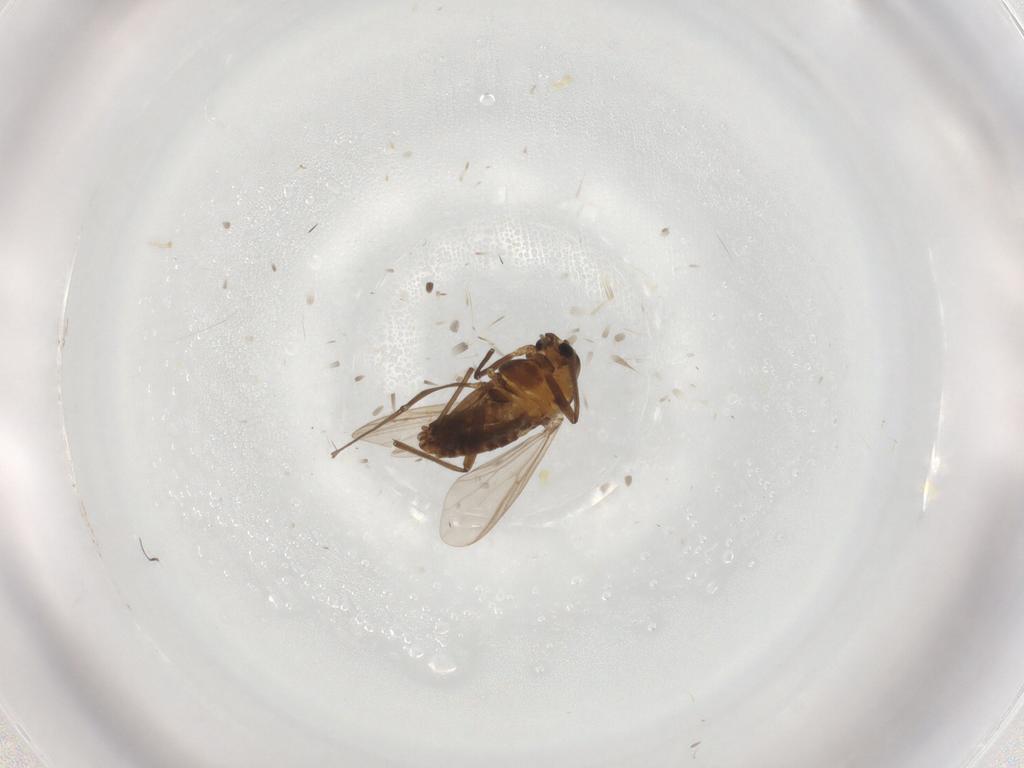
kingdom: Animalia
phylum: Arthropoda
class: Insecta
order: Diptera
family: Chironomidae
